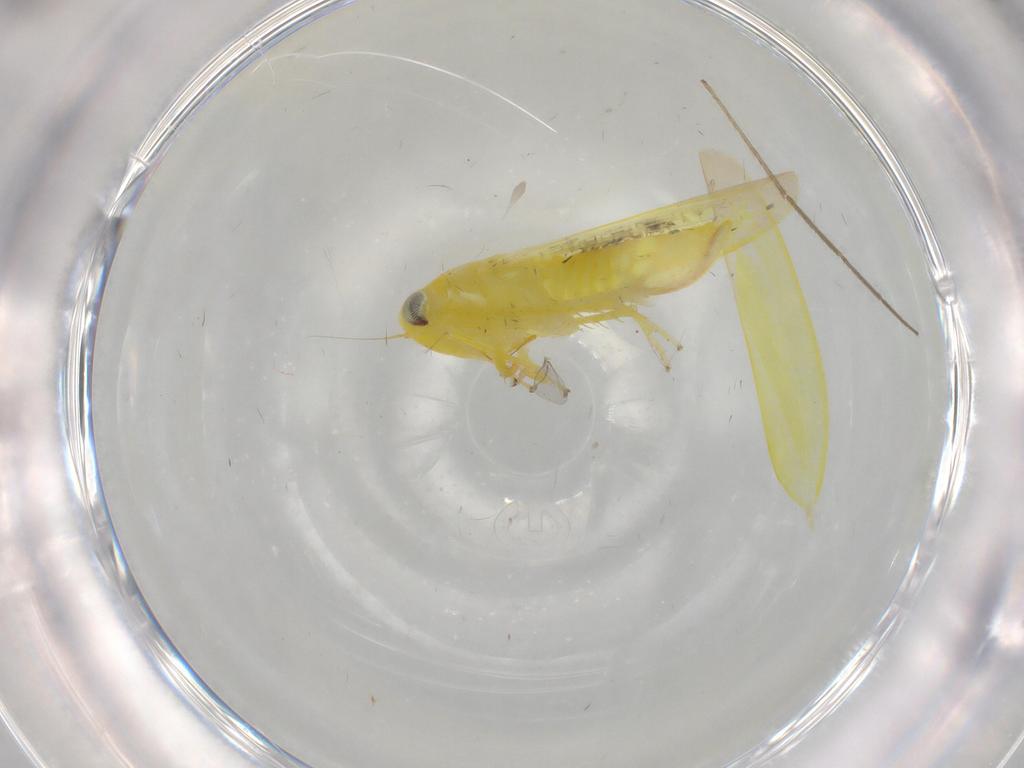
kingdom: Animalia
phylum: Arthropoda
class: Insecta
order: Hemiptera
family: Cicadellidae
